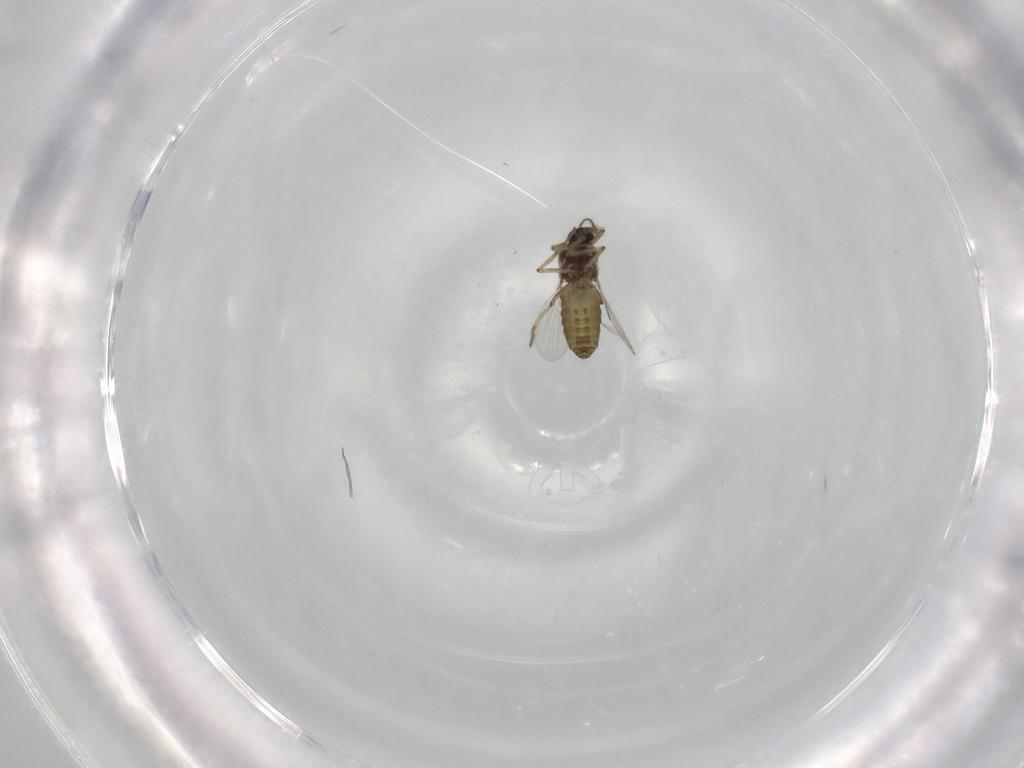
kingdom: Animalia
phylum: Arthropoda
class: Insecta
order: Diptera
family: Ceratopogonidae
